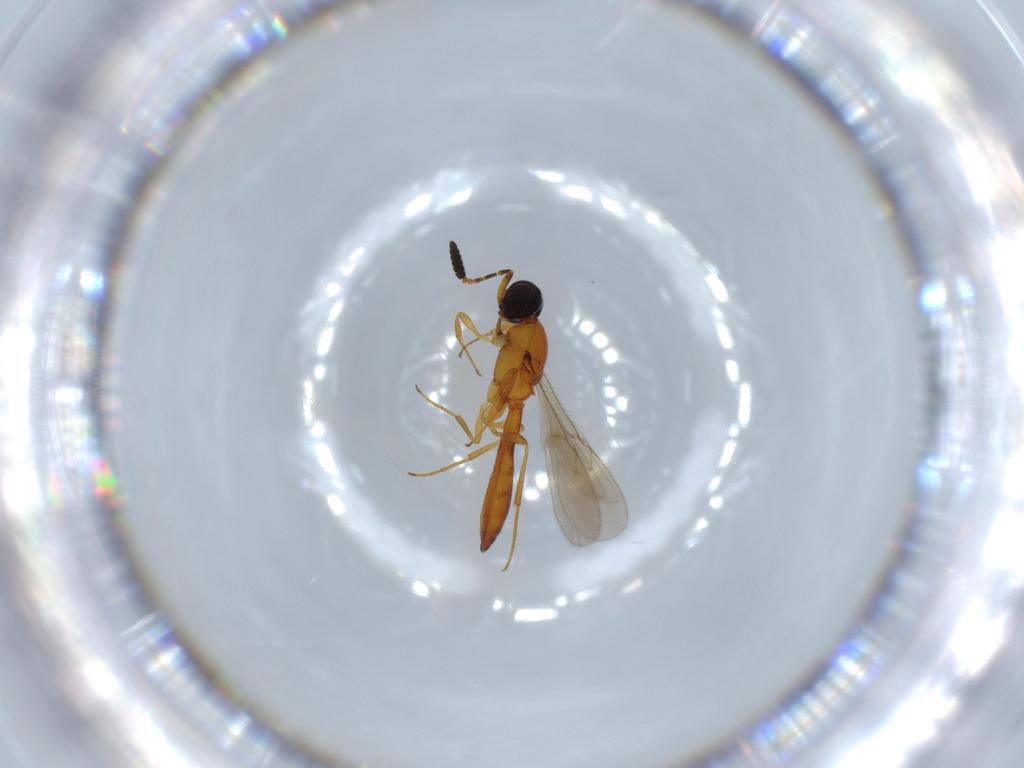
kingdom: Animalia
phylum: Arthropoda
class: Insecta
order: Hymenoptera
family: Scelionidae
